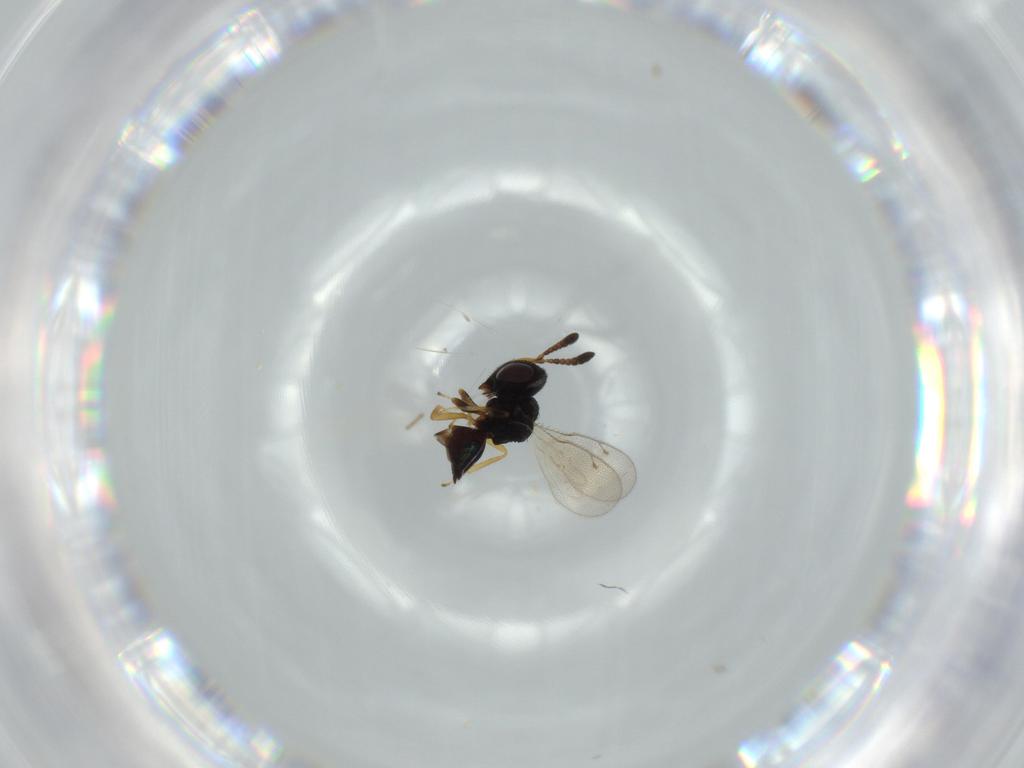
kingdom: Animalia
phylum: Arthropoda
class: Insecta
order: Hymenoptera
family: Pteromalidae
